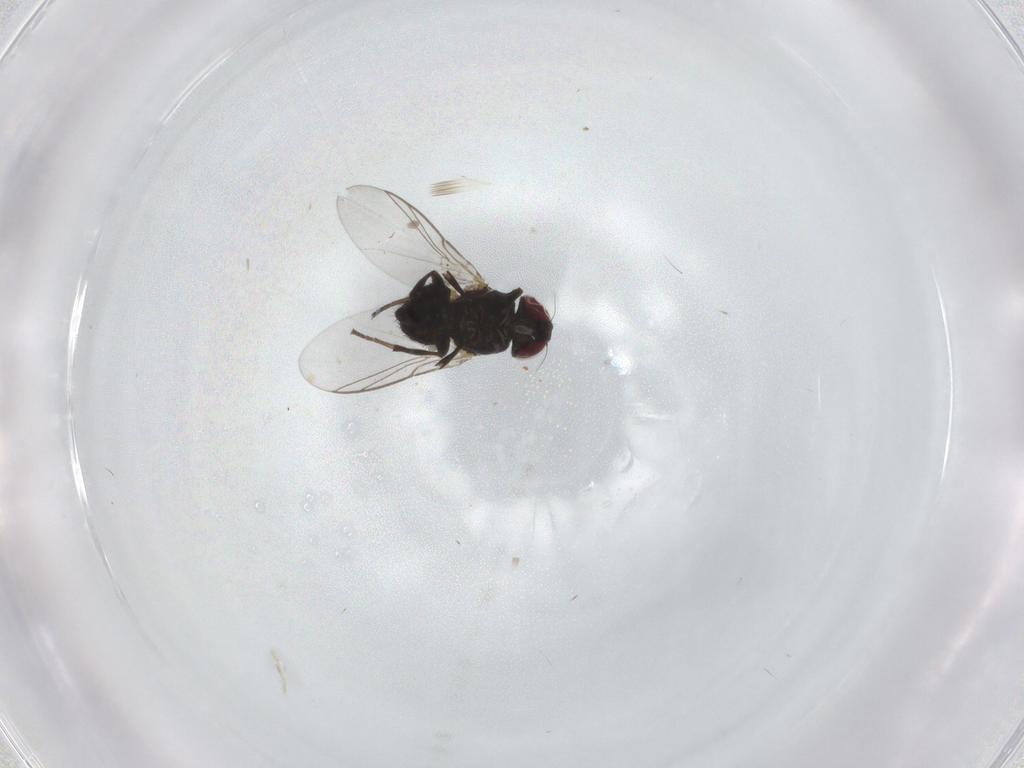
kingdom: Animalia
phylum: Arthropoda
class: Insecta
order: Diptera
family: Agromyzidae
